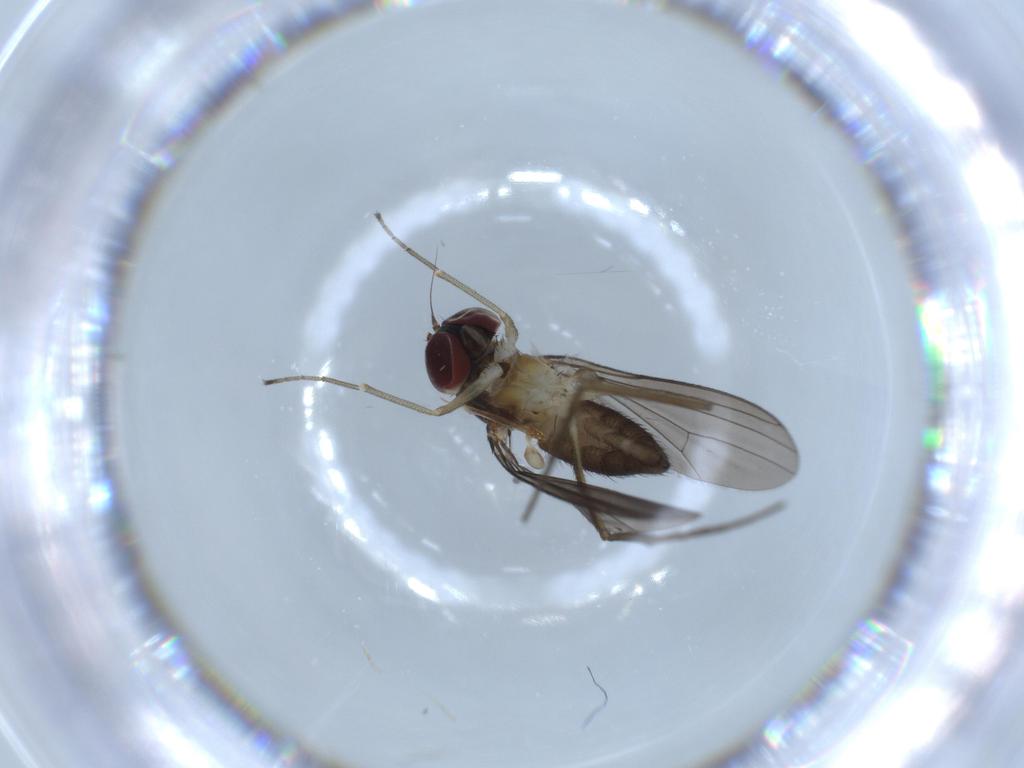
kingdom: Animalia
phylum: Arthropoda
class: Insecta
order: Diptera
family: Dolichopodidae
